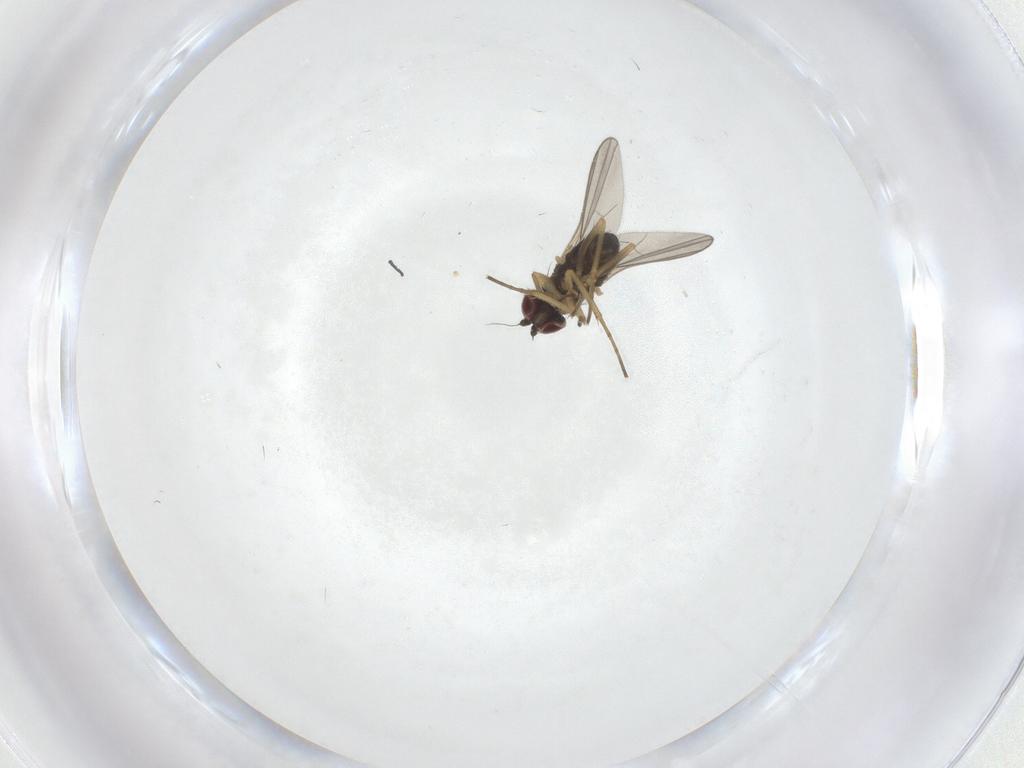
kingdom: Animalia
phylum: Arthropoda
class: Insecta
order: Diptera
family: Dolichopodidae
